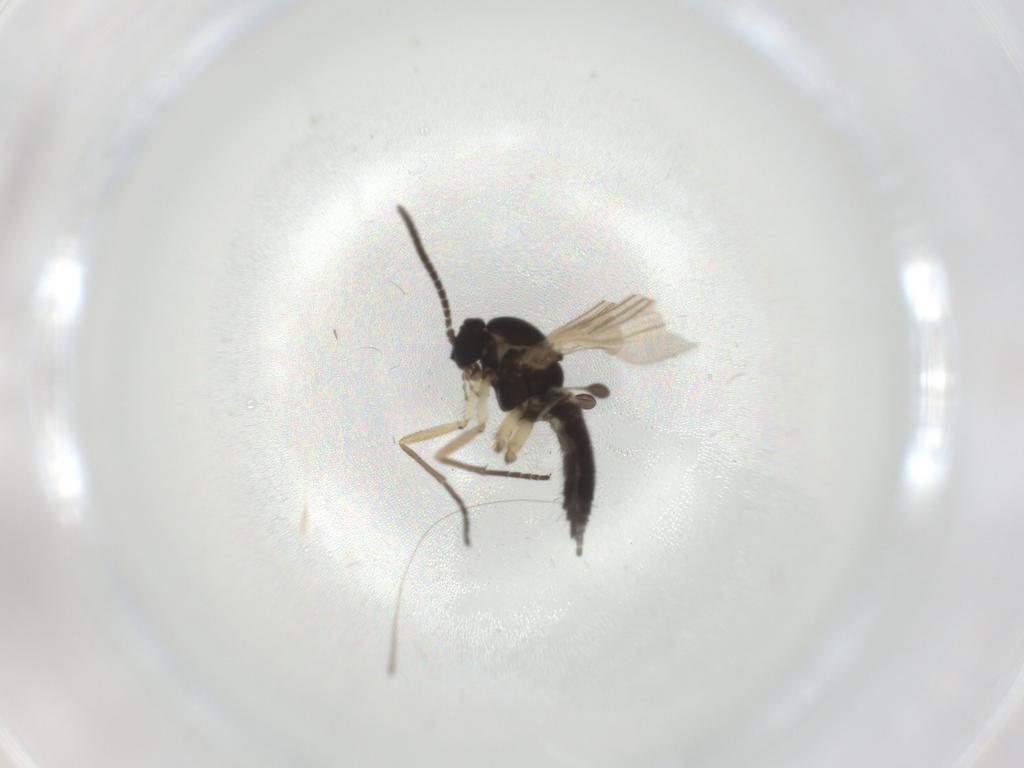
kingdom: Animalia
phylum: Arthropoda
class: Insecta
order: Diptera
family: Sciaridae
